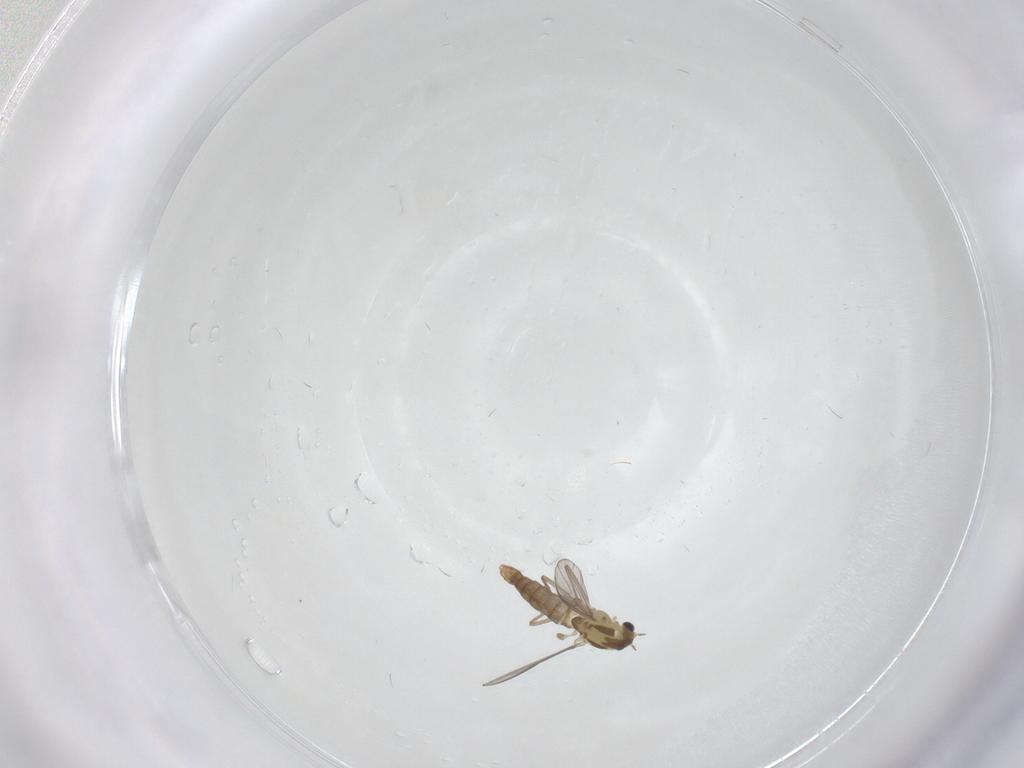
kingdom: Animalia
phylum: Arthropoda
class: Insecta
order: Diptera
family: Chironomidae
